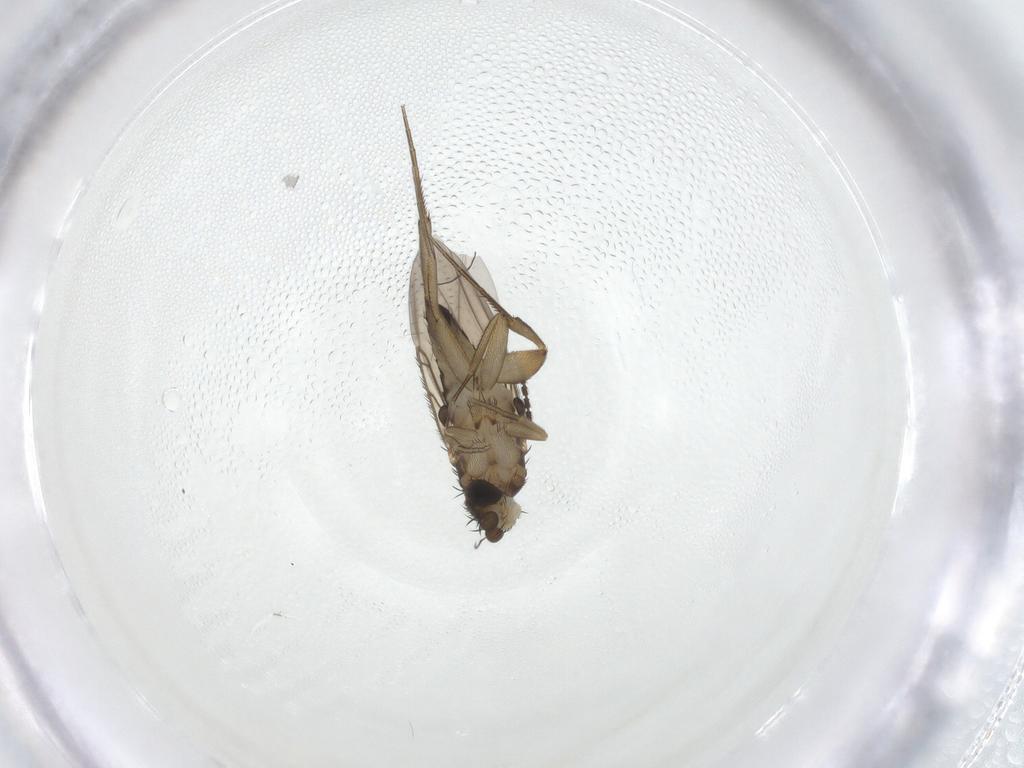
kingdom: Animalia
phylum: Arthropoda
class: Insecta
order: Diptera
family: Phoridae
